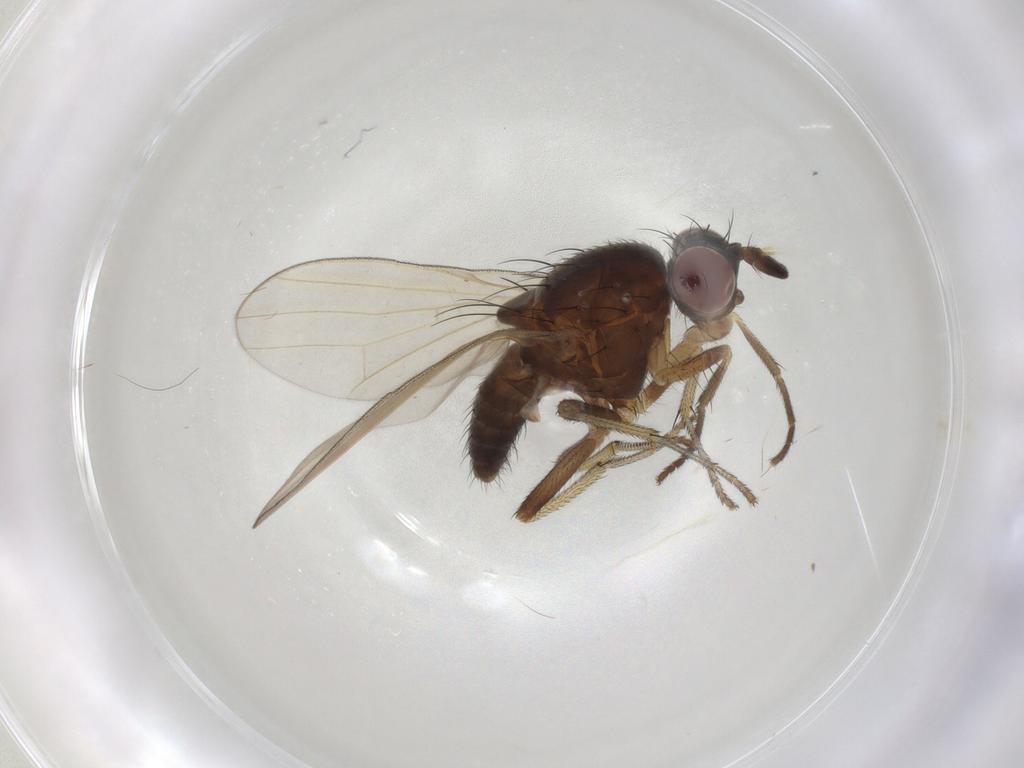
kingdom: Animalia
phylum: Arthropoda
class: Insecta
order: Diptera
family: Lauxaniidae
